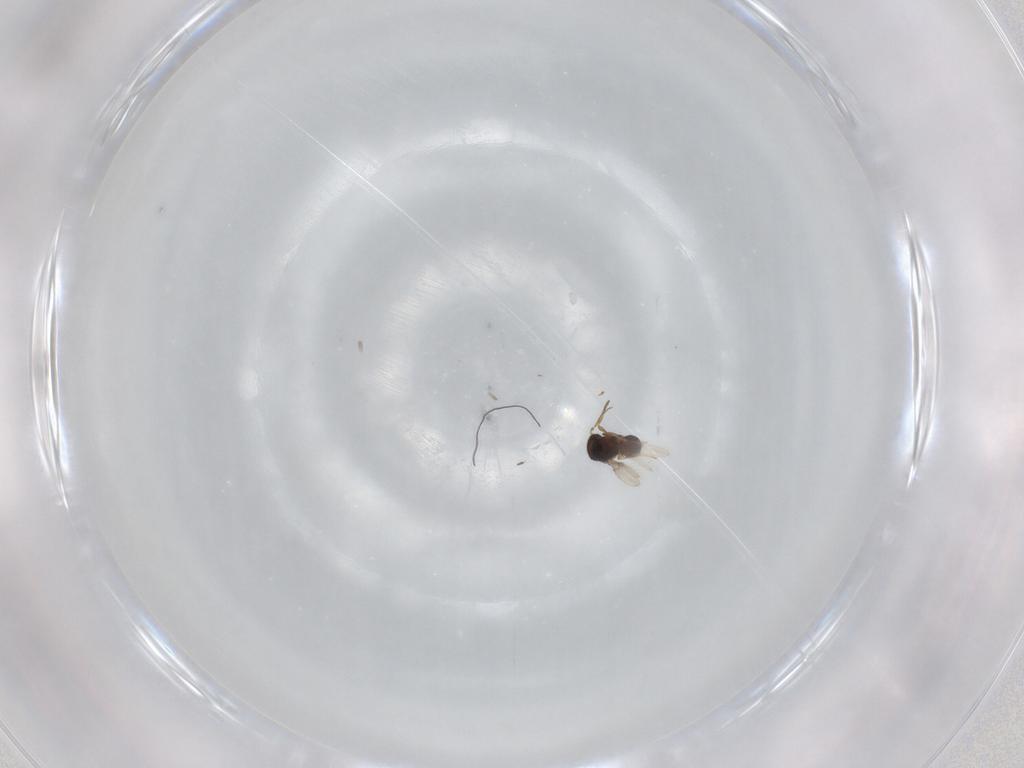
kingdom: Animalia
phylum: Arthropoda
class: Insecta
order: Hymenoptera
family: Scelionidae
